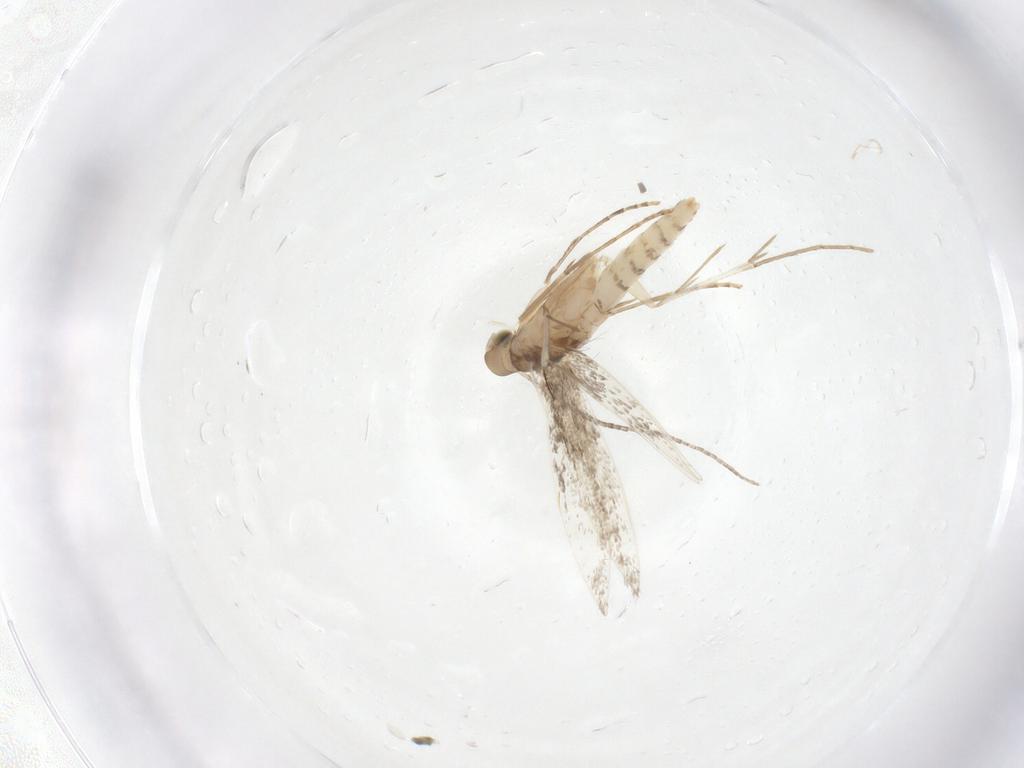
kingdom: Animalia
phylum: Arthropoda
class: Insecta
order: Lepidoptera
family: Gracillariidae
